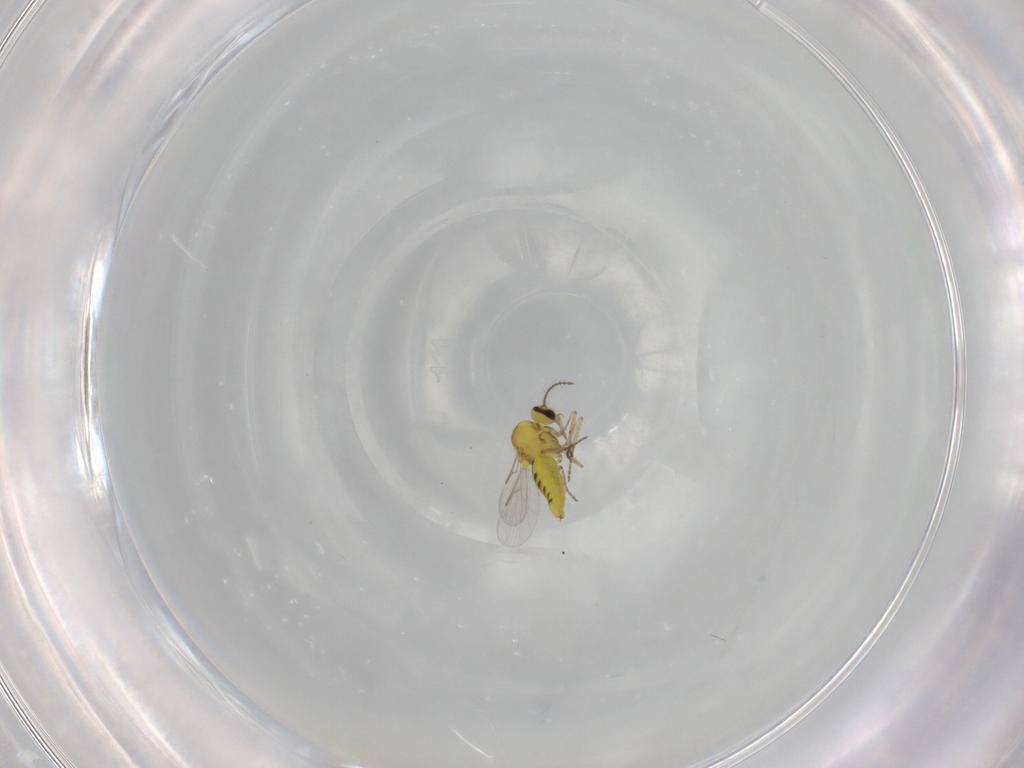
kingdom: Animalia
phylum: Arthropoda
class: Insecta
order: Diptera
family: Ceratopogonidae
